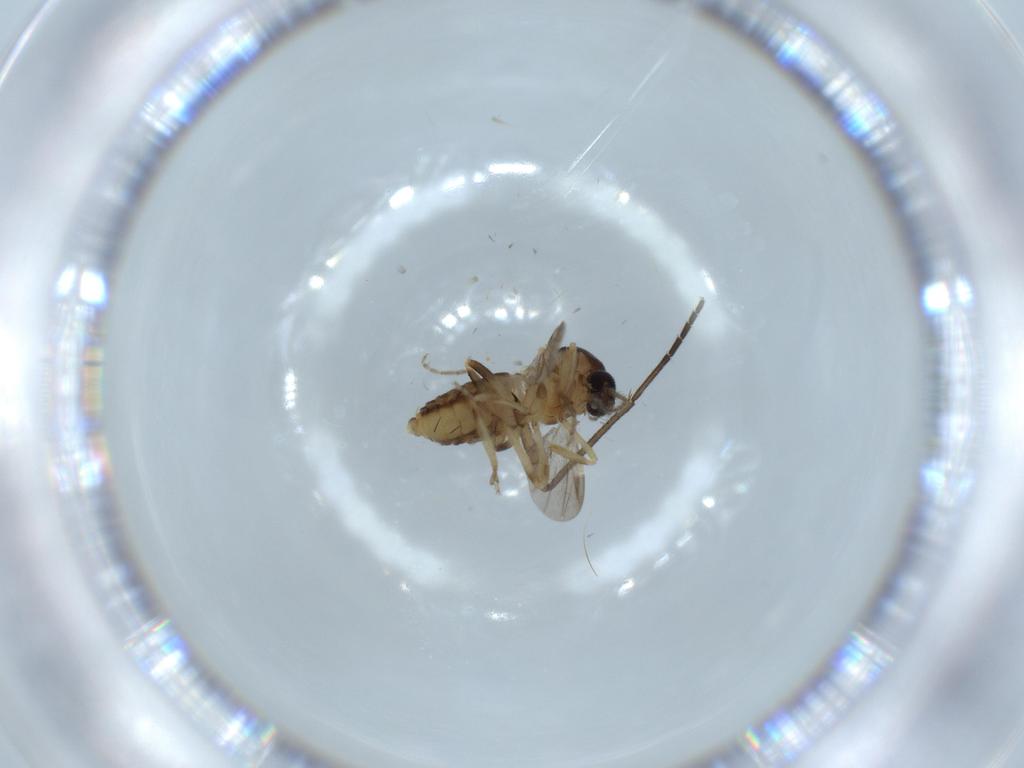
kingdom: Animalia
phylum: Arthropoda
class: Insecta
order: Diptera
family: Ceratopogonidae
